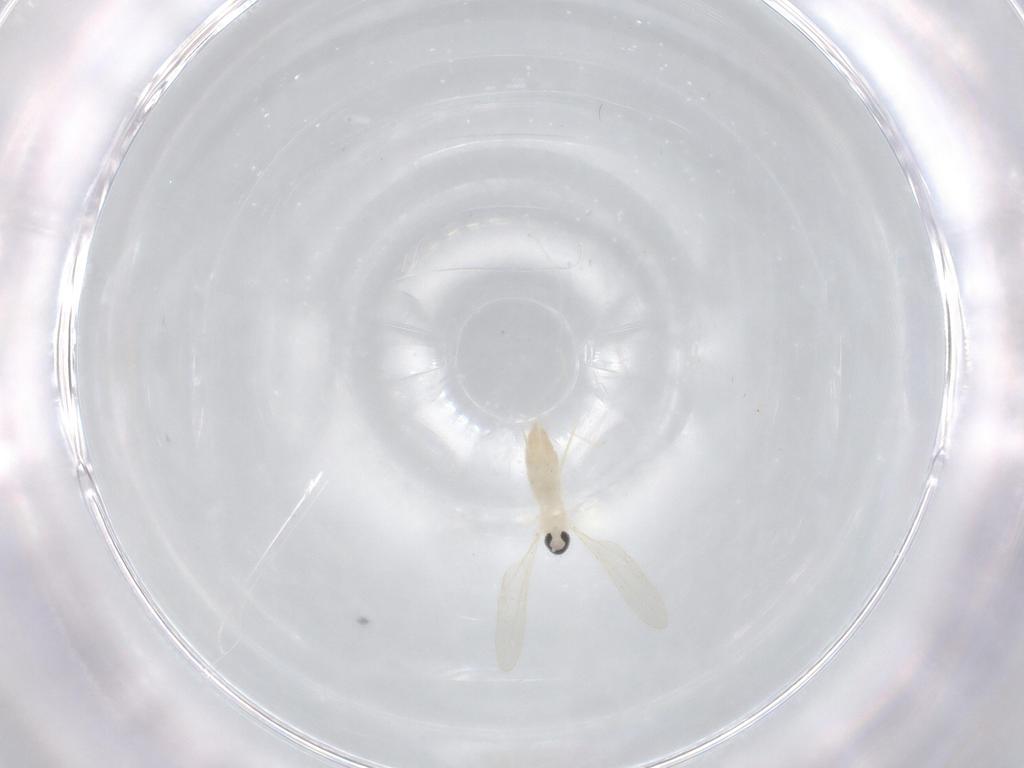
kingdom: Animalia
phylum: Arthropoda
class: Insecta
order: Diptera
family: Cecidomyiidae
